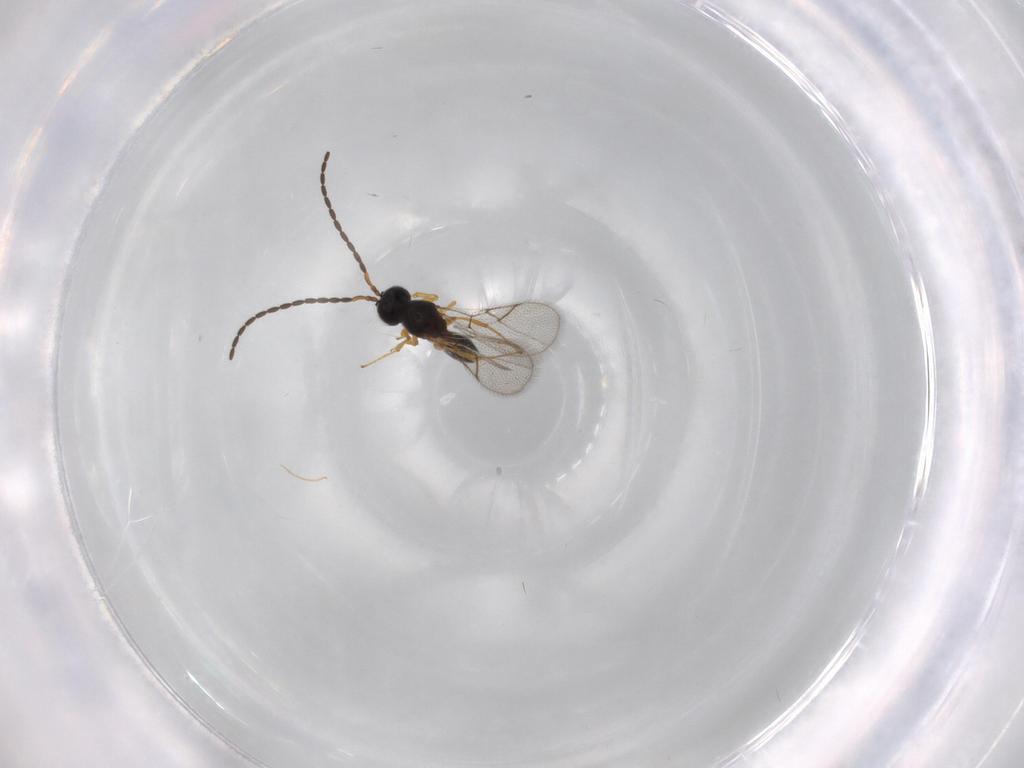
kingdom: Animalia
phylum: Arthropoda
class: Insecta
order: Hymenoptera
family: Figitidae
